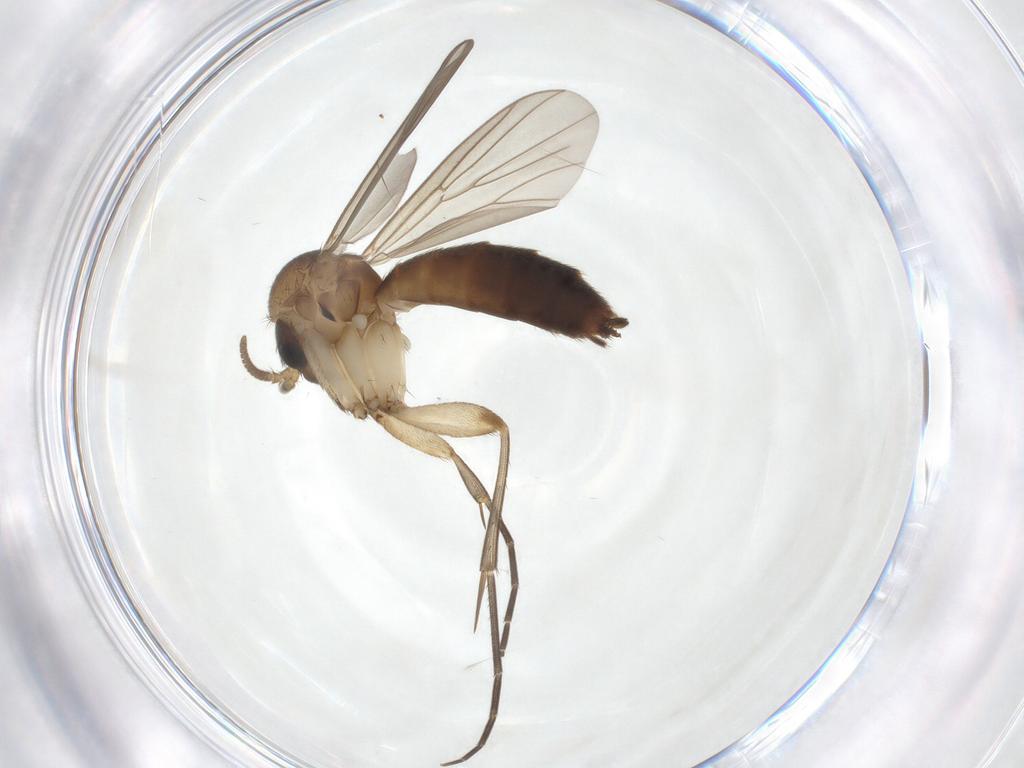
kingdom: Animalia
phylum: Arthropoda
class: Insecta
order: Diptera
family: Mycetophilidae
